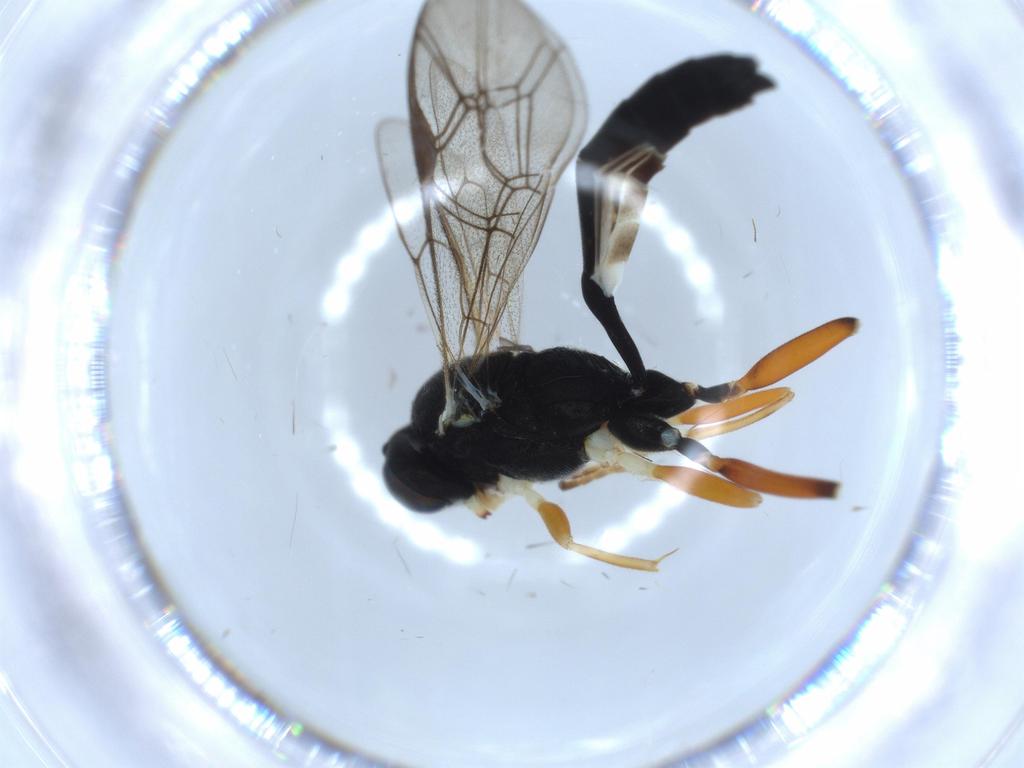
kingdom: Animalia
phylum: Arthropoda
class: Insecta
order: Hymenoptera
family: Eulophidae
